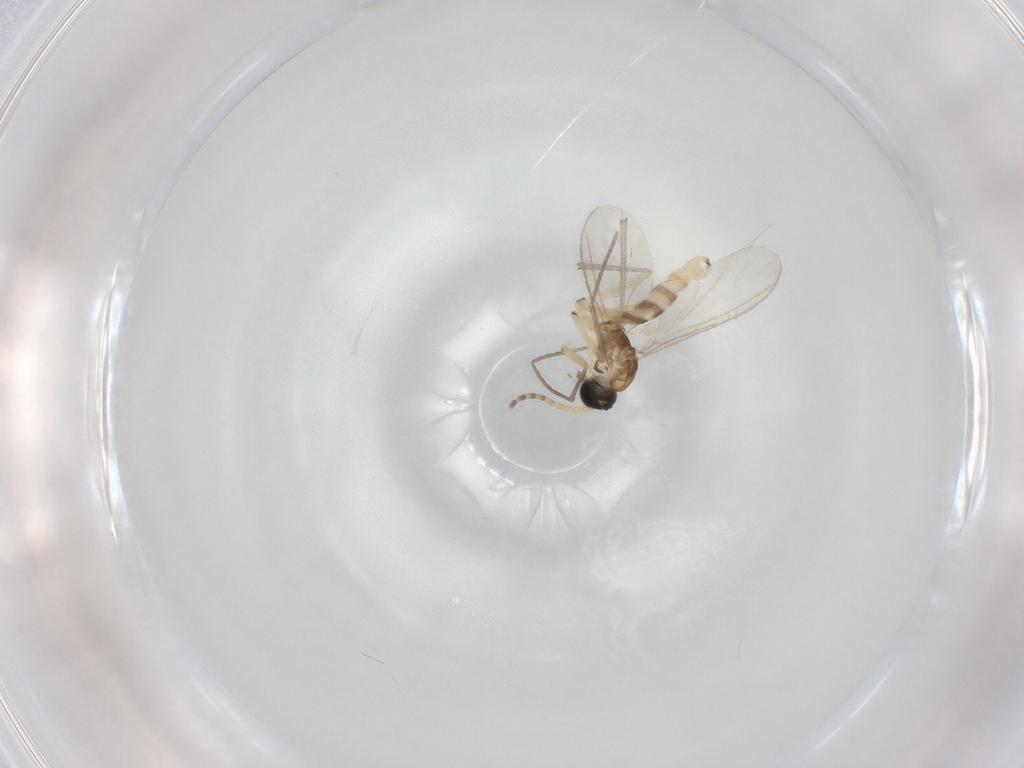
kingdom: Animalia
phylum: Arthropoda
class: Insecta
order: Diptera
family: Sciaridae
